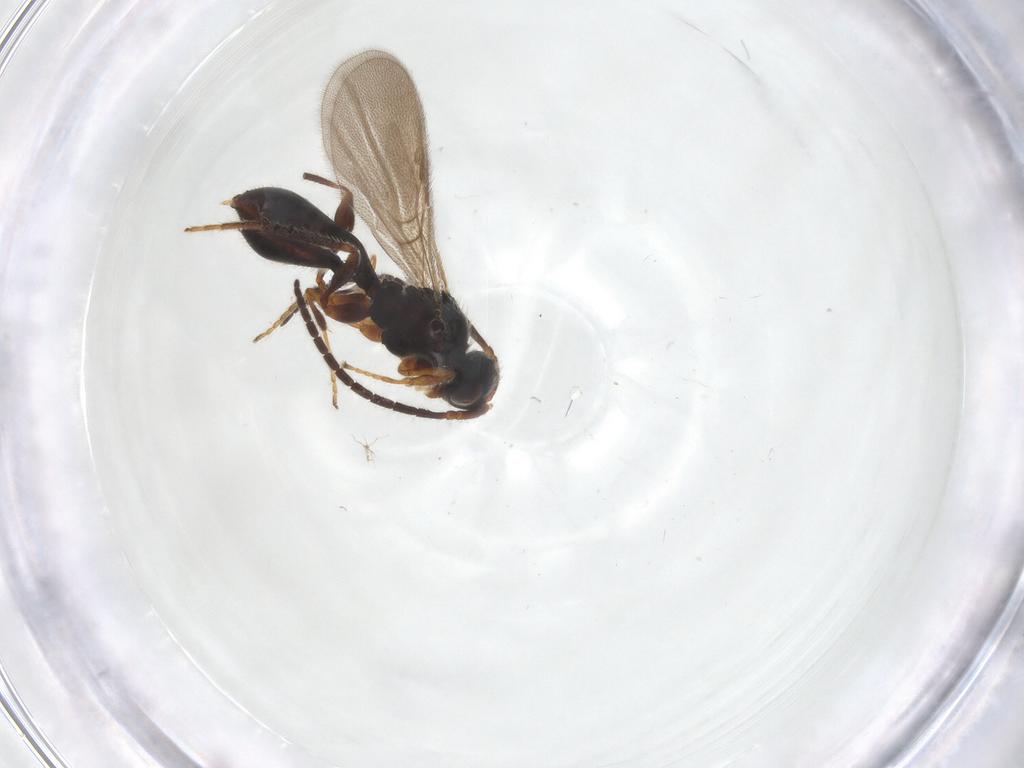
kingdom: Animalia
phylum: Arthropoda
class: Insecta
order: Hymenoptera
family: Diapriidae
